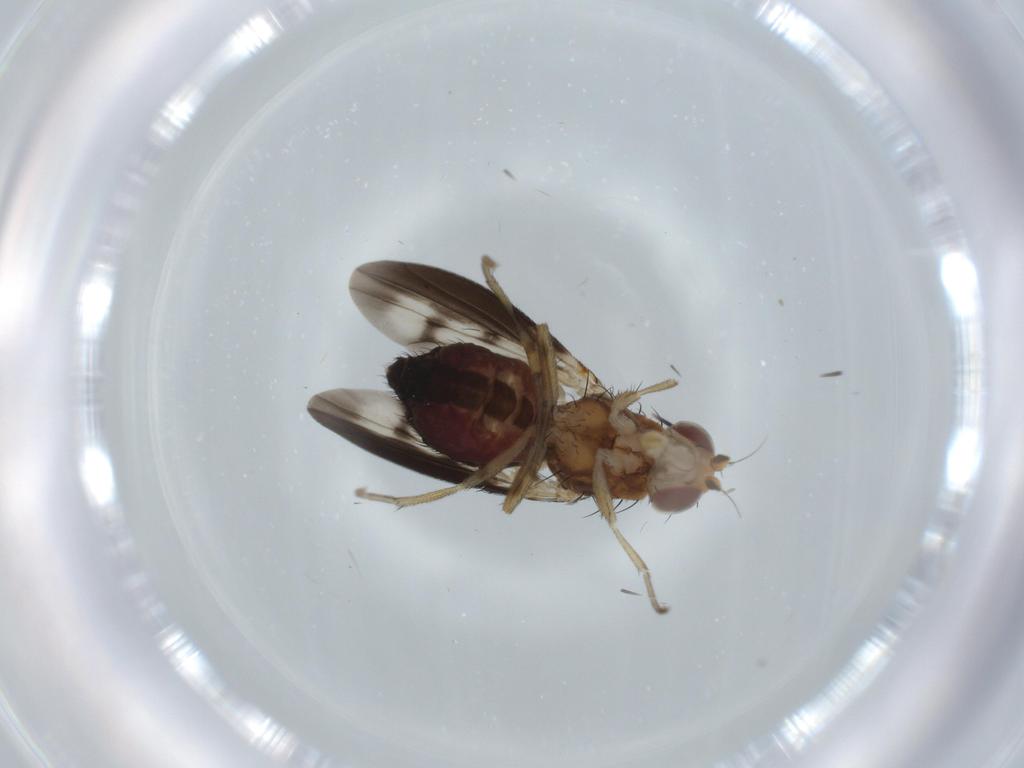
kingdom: Animalia
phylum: Arthropoda
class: Insecta
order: Diptera
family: Heleomyzidae
